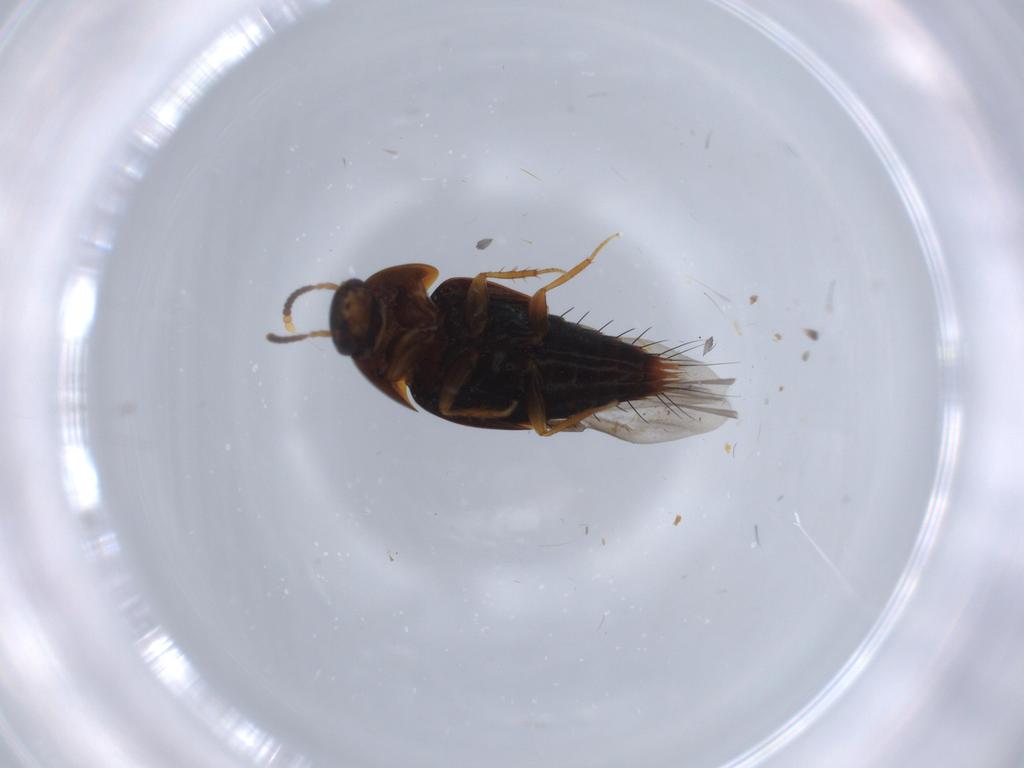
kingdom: Animalia
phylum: Arthropoda
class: Insecta
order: Coleoptera
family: Staphylinidae
